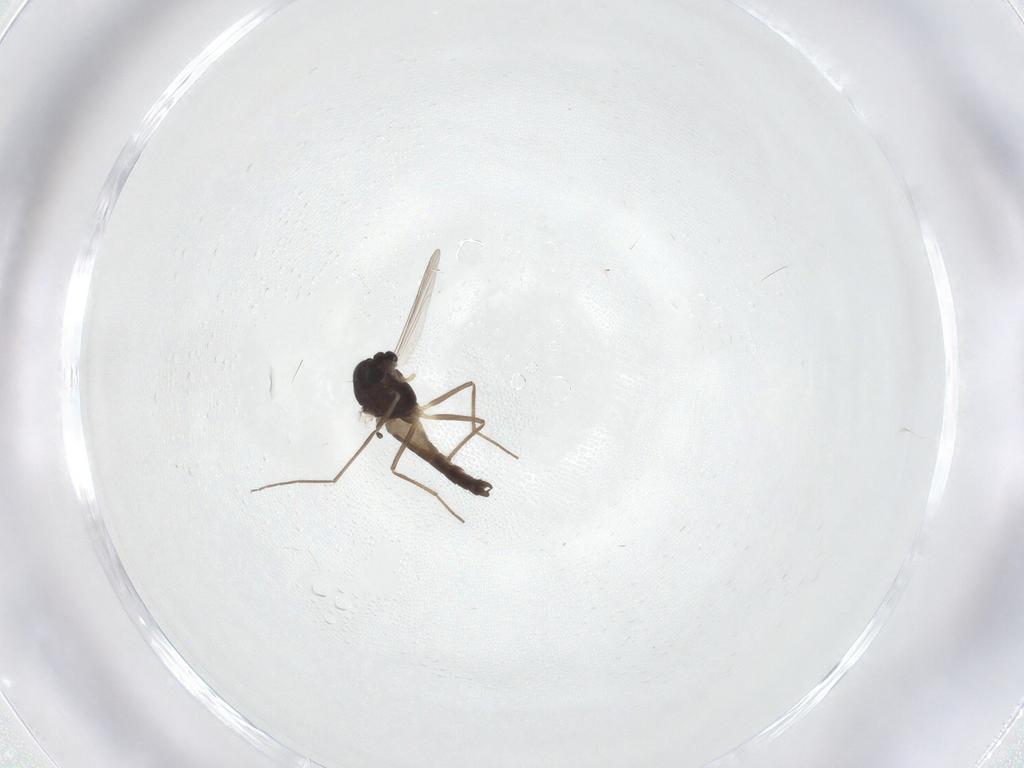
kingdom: Animalia
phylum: Arthropoda
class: Insecta
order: Diptera
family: Chironomidae
